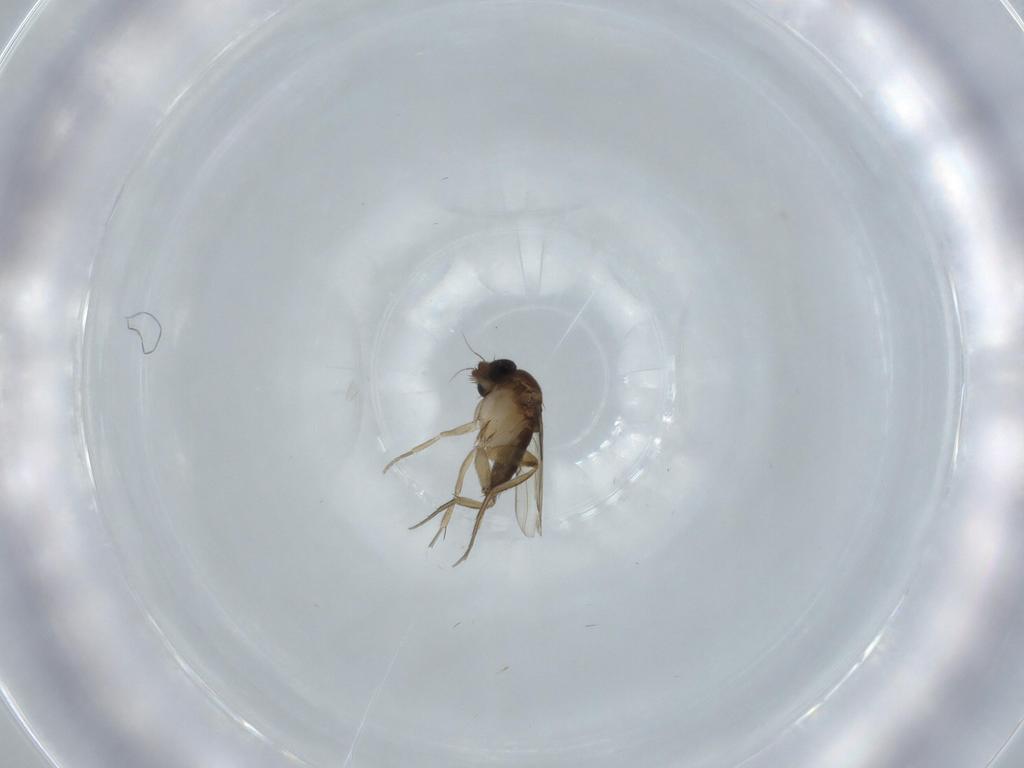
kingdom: Animalia
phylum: Arthropoda
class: Insecta
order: Diptera
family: Phoridae
